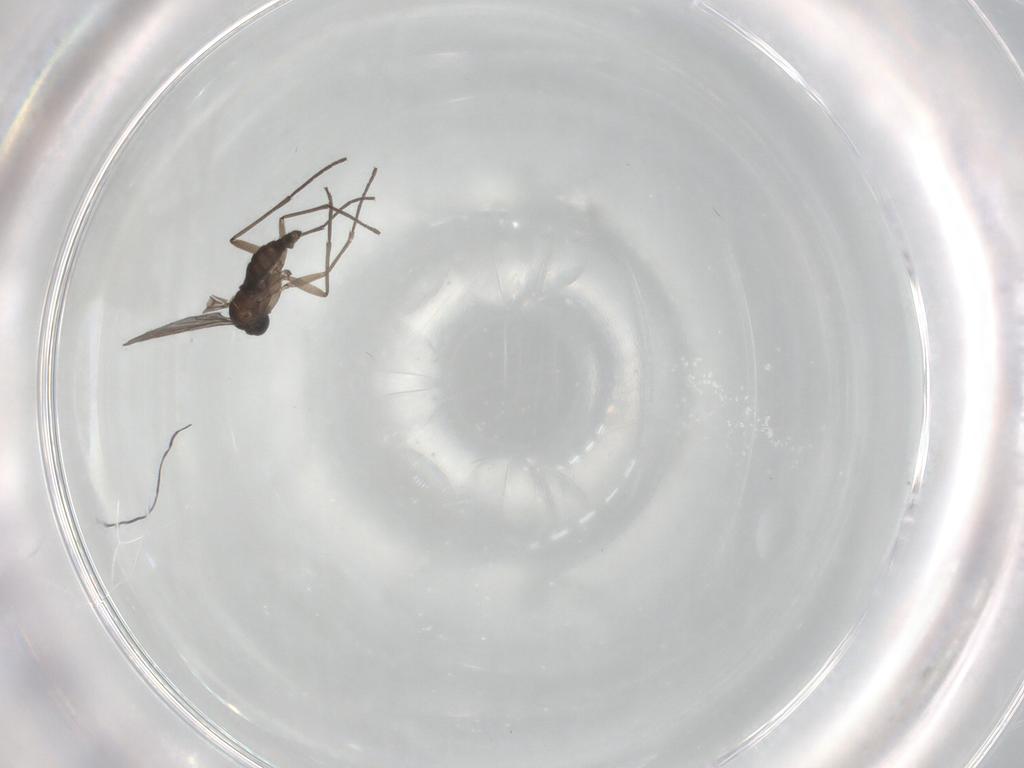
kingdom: Animalia
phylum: Arthropoda
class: Insecta
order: Diptera
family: Sciaridae
